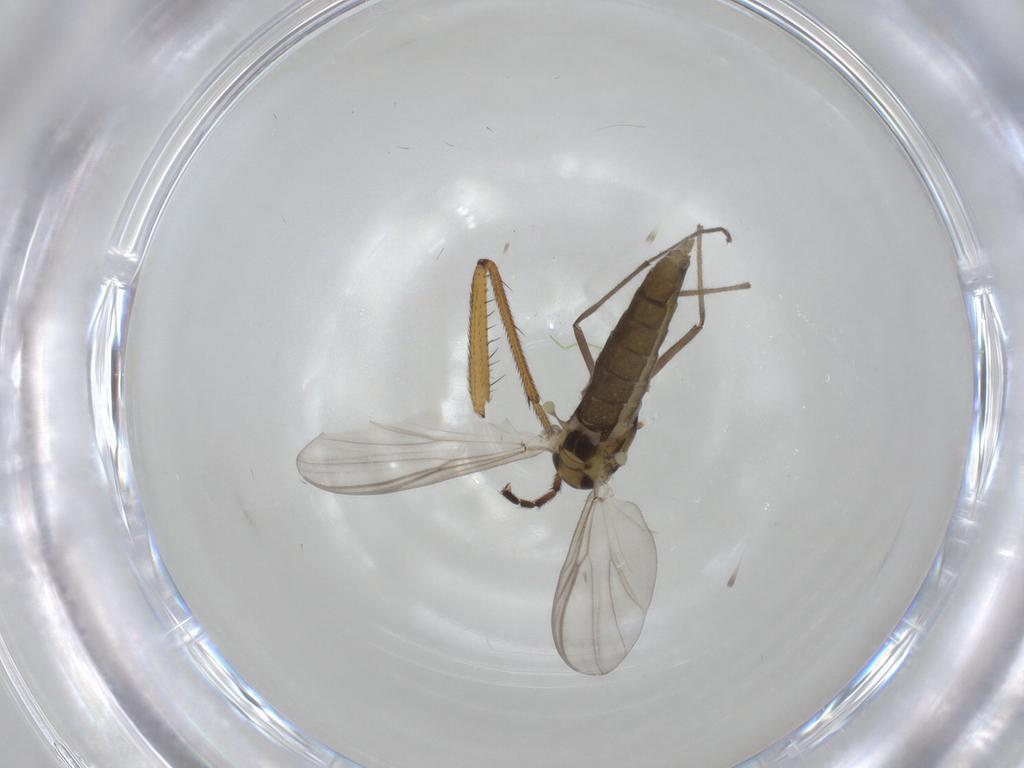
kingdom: Animalia
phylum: Arthropoda
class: Insecta
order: Diptera
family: Chironomidae
